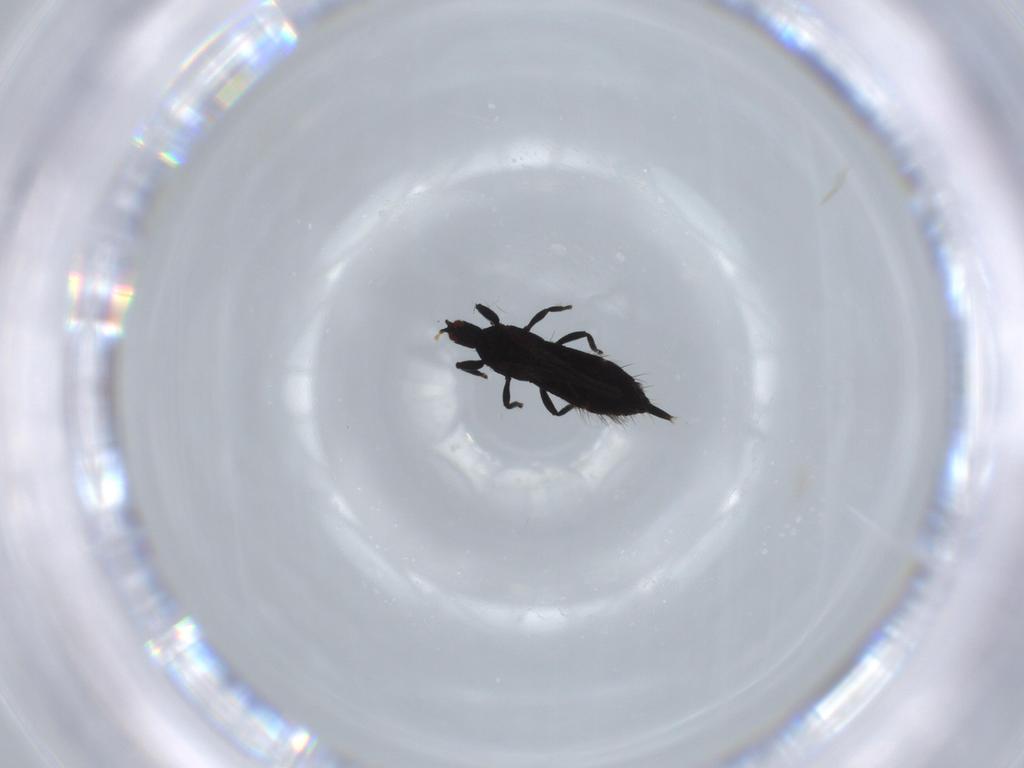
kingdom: Animalia
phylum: Arthropoda
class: Insecta
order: Thysanoptera
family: Phlaeothripidae
